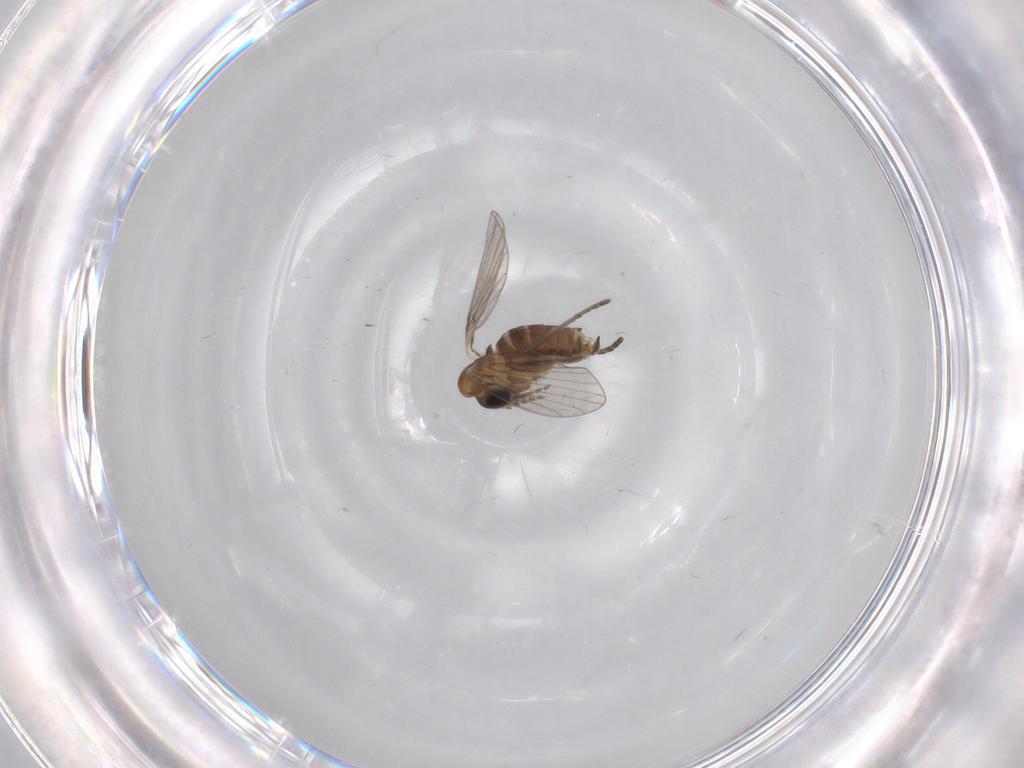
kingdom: Animalia
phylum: Arthropoda
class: Insecta
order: Diptera
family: Psychodidae
